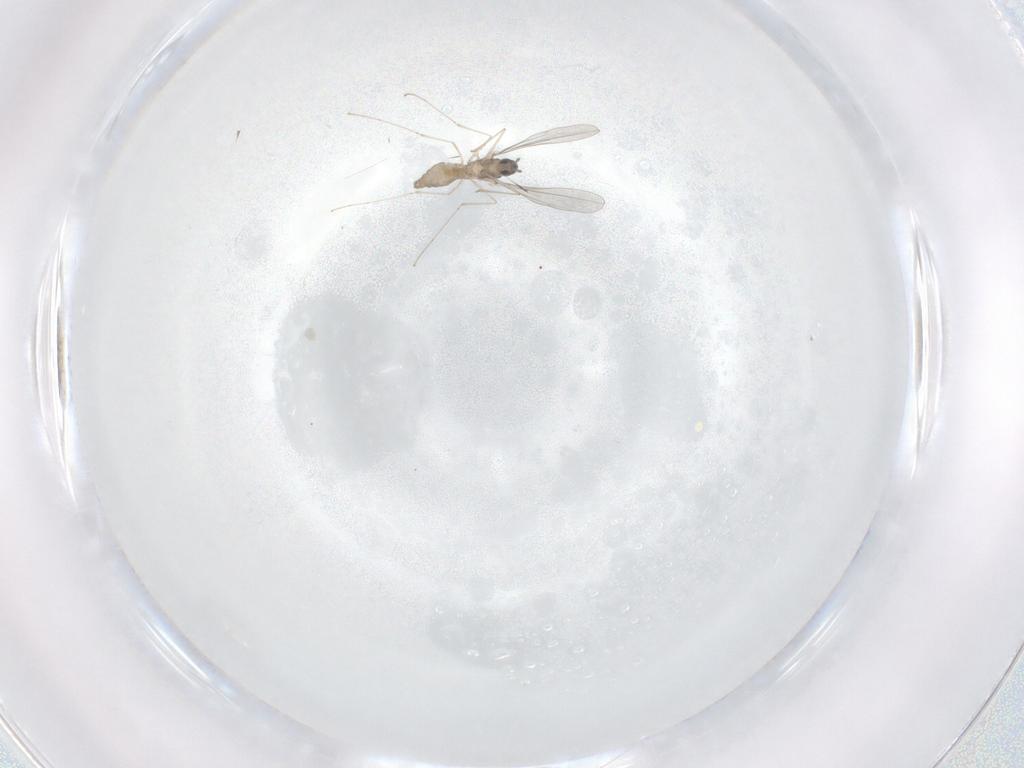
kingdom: Animalia
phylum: Arthropoda
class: Insecta
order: Diptera
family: Cecidomyiidae
